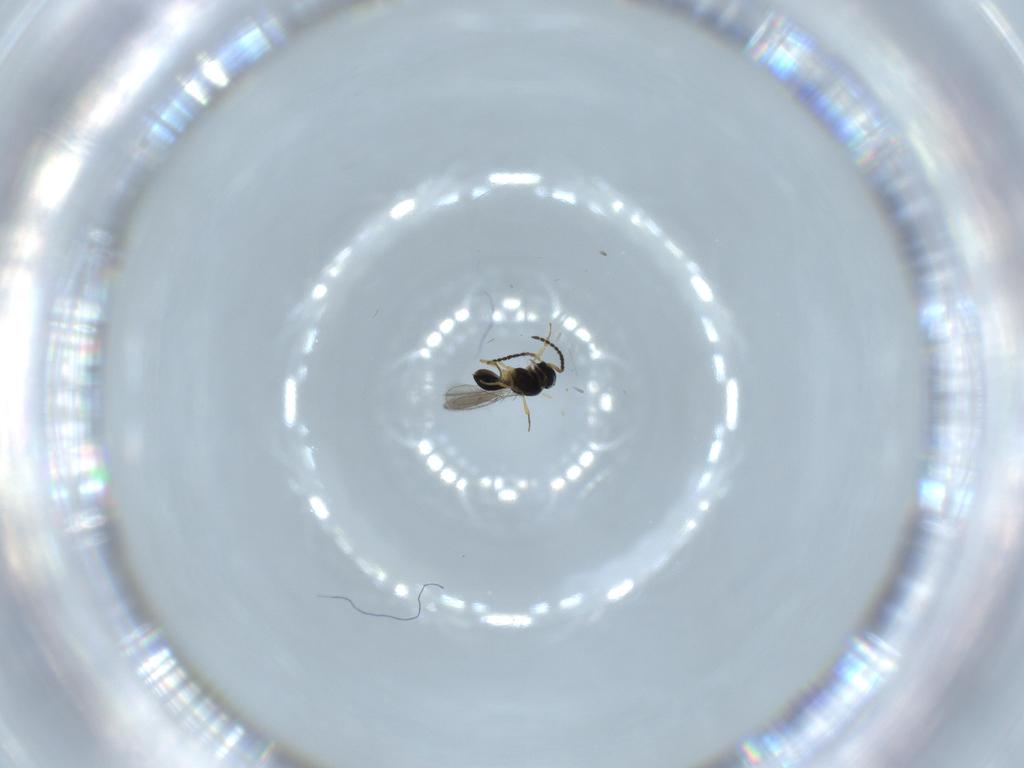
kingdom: Animalia
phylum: Arthropoda
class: Insecta
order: Hymenoptera
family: Scelionidae
